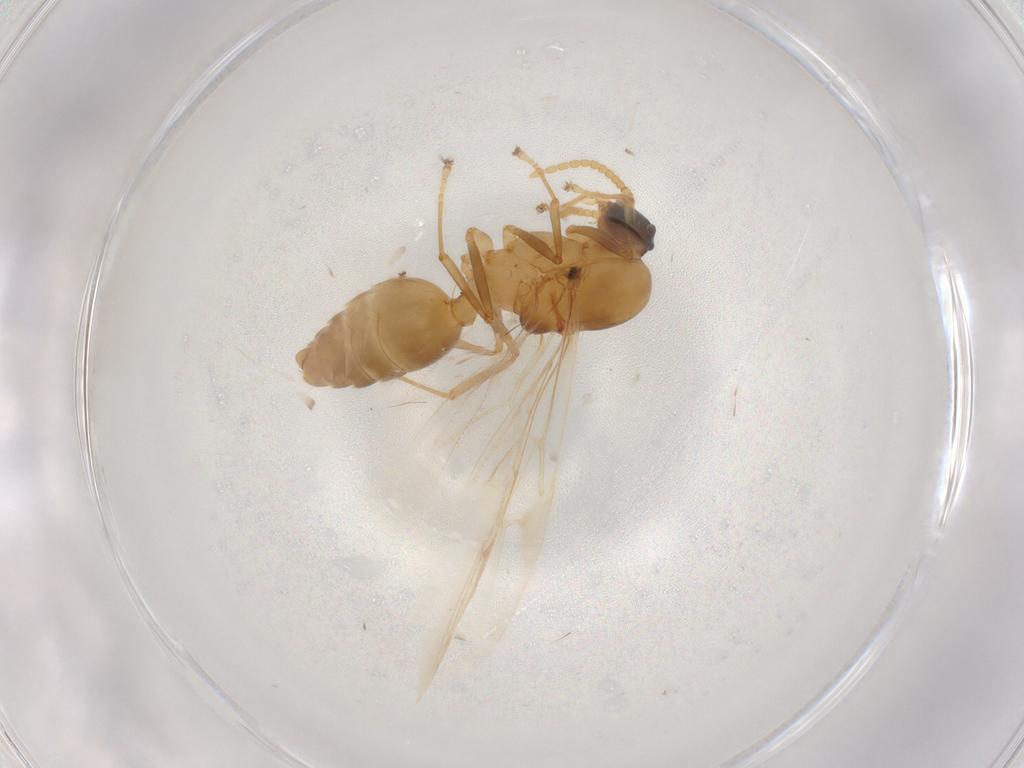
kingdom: Animalia
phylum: Arthropoda
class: Insecta
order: Hymenoptera
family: Formicidae
